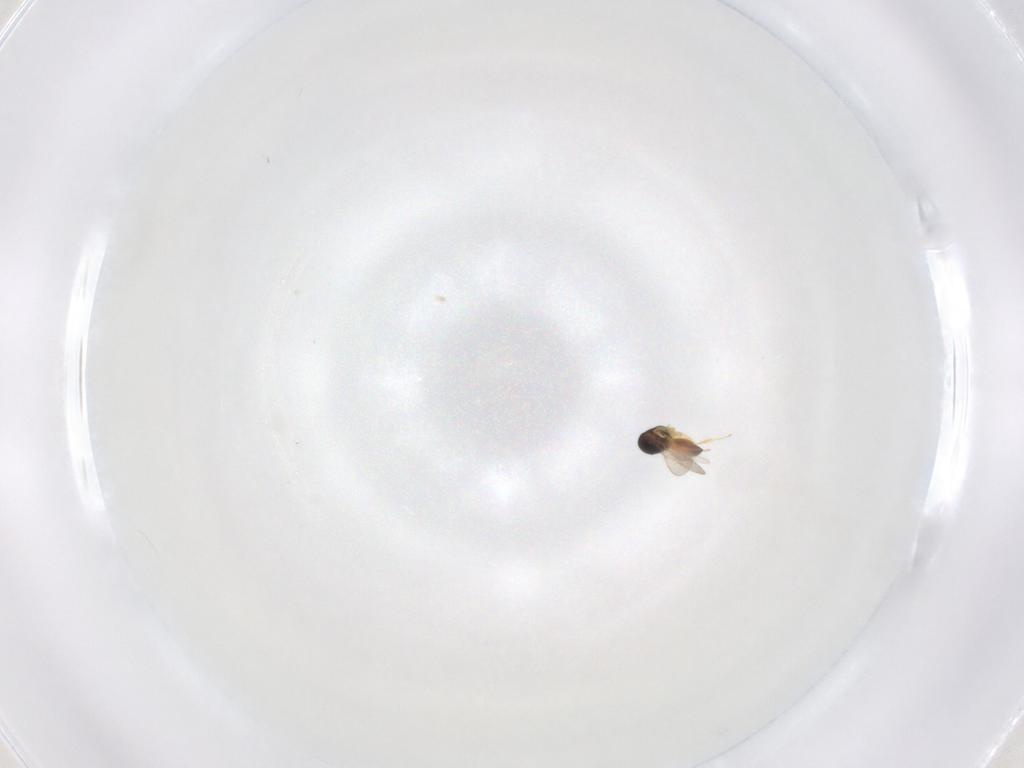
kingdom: Animalia
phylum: Arthropoda
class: Insecta
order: Hymenoptera
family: Scelionidae
